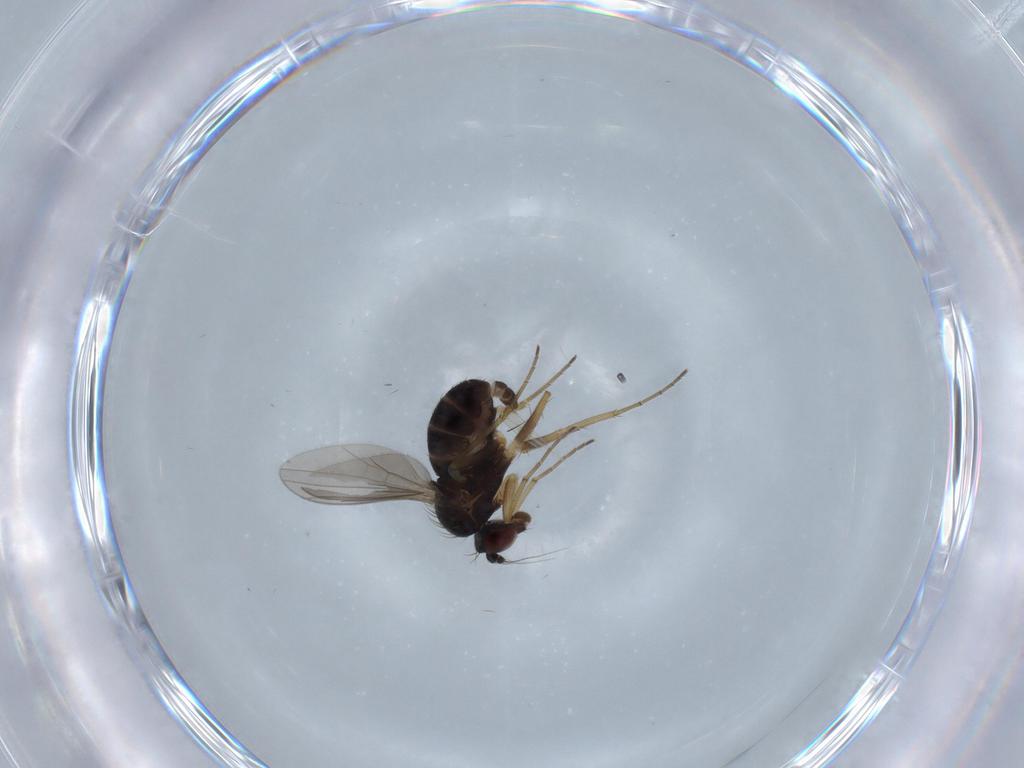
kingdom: Animalia
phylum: Arthropoda
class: Insecta
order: Diptera
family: Dolichopodidae
